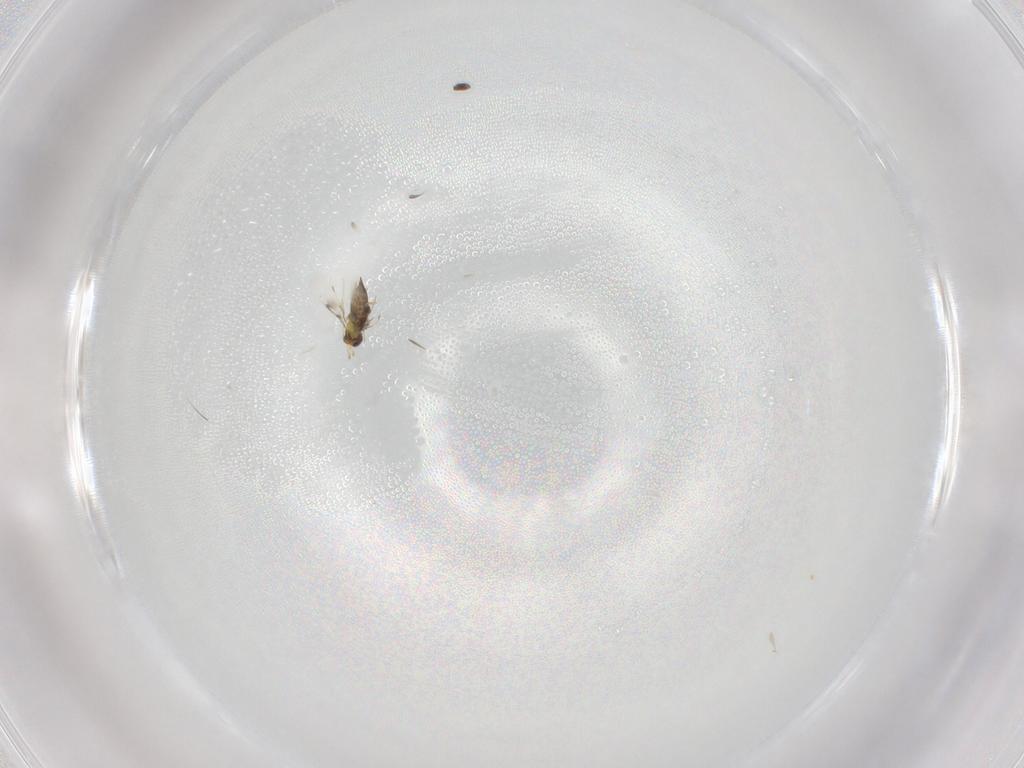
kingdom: Animalia
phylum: Arthropoda
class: Insecta
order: Hymenoptera
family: Trichogrammatidae
